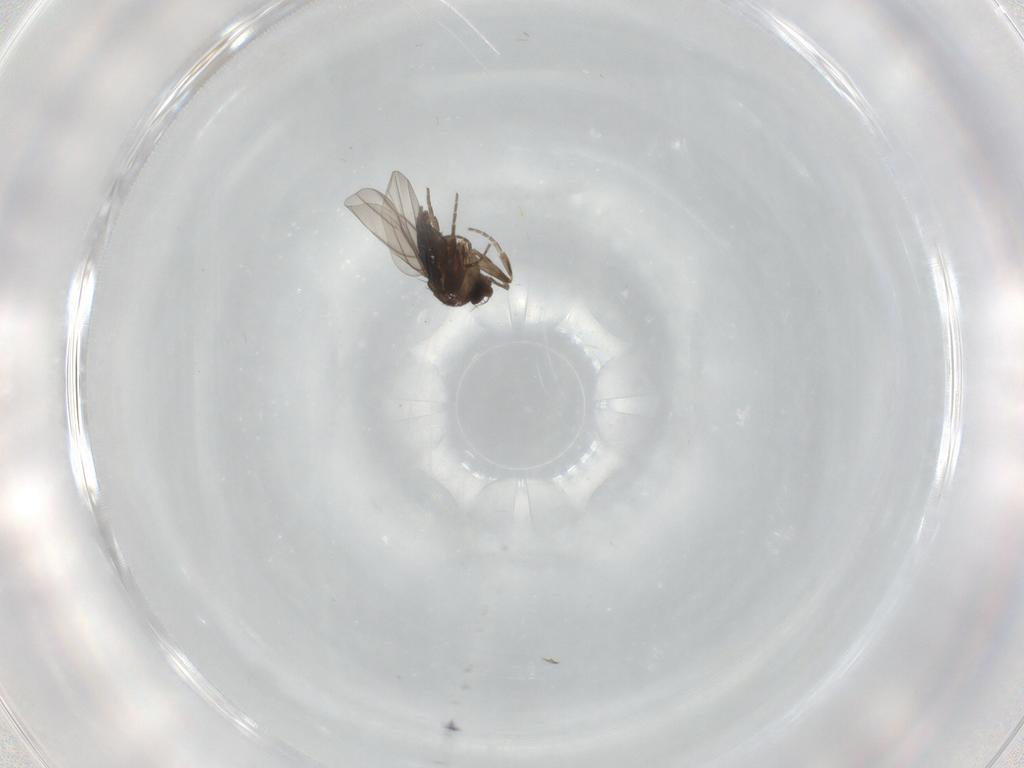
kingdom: Animalia
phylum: Arthropoda
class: Insecta
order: Diptera
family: Phoridae
